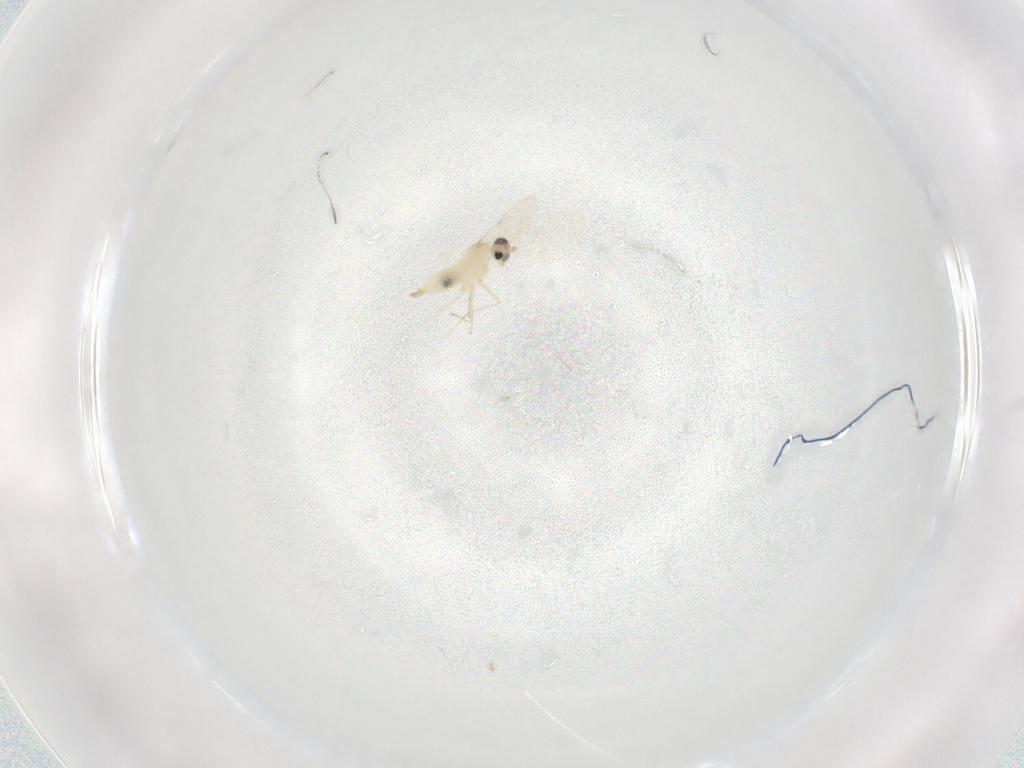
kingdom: Animalia
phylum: Arthropoda
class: Insecta
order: Diptera
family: Cecidomyiidae
